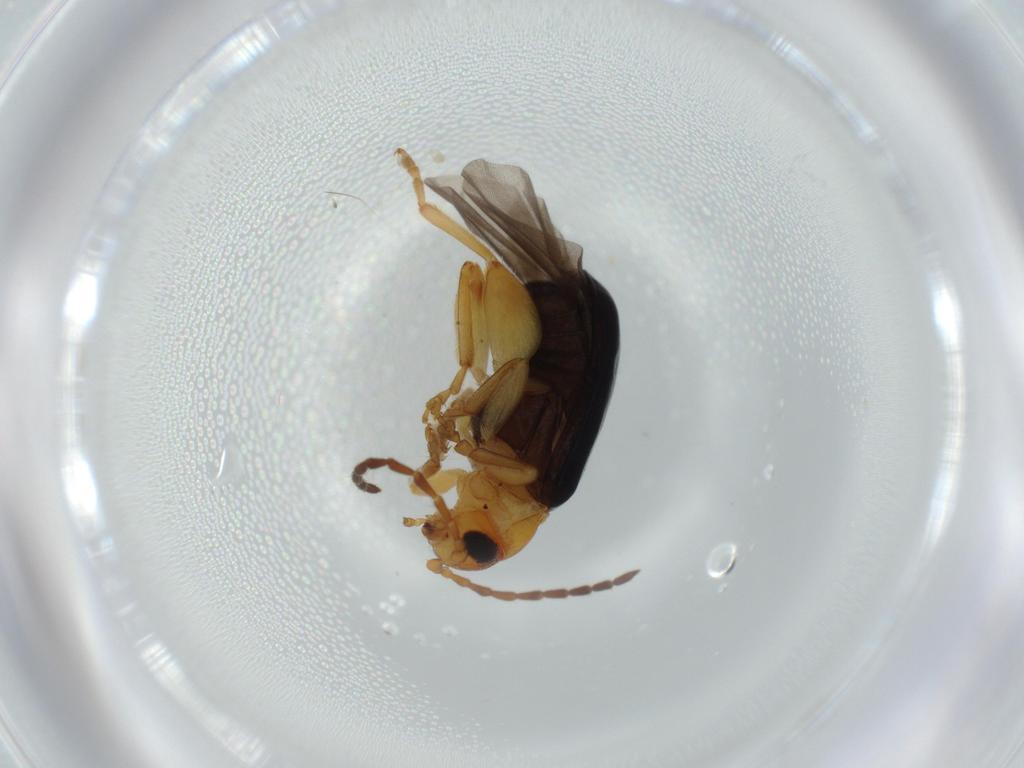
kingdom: Animalia
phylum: Arthropoda
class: Insecta
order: Coleoptera
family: Chrysomelidae
